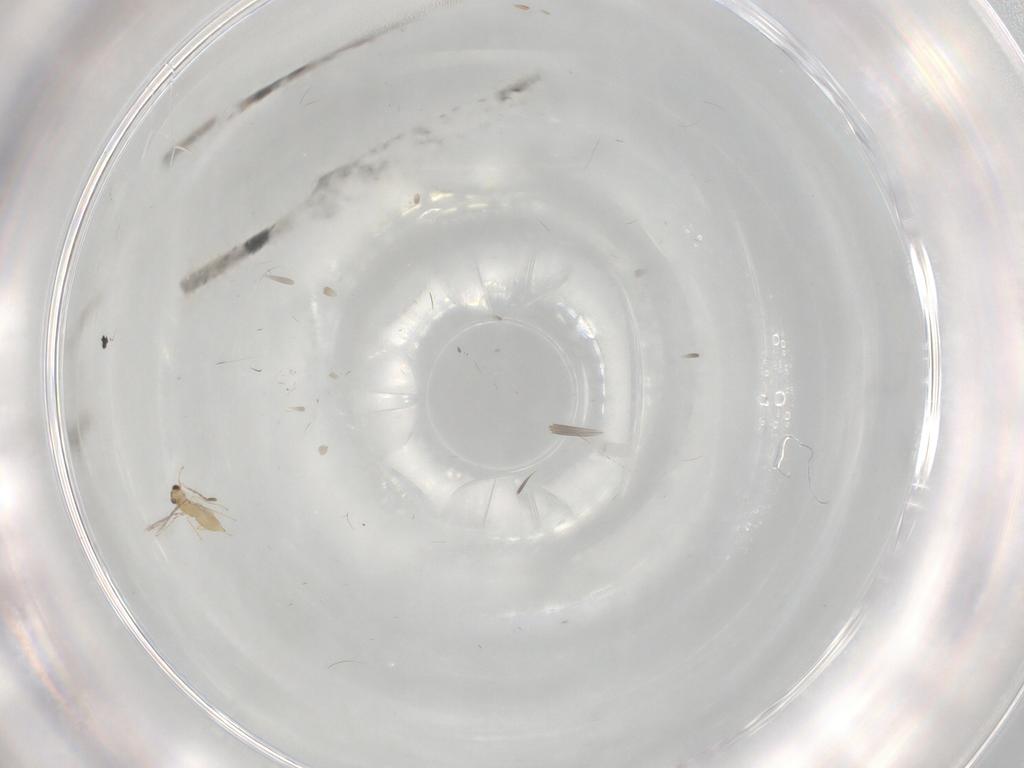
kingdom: Animalia
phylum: Arthropoda
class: Insecta
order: Hymenoptera
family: Mymaridae
